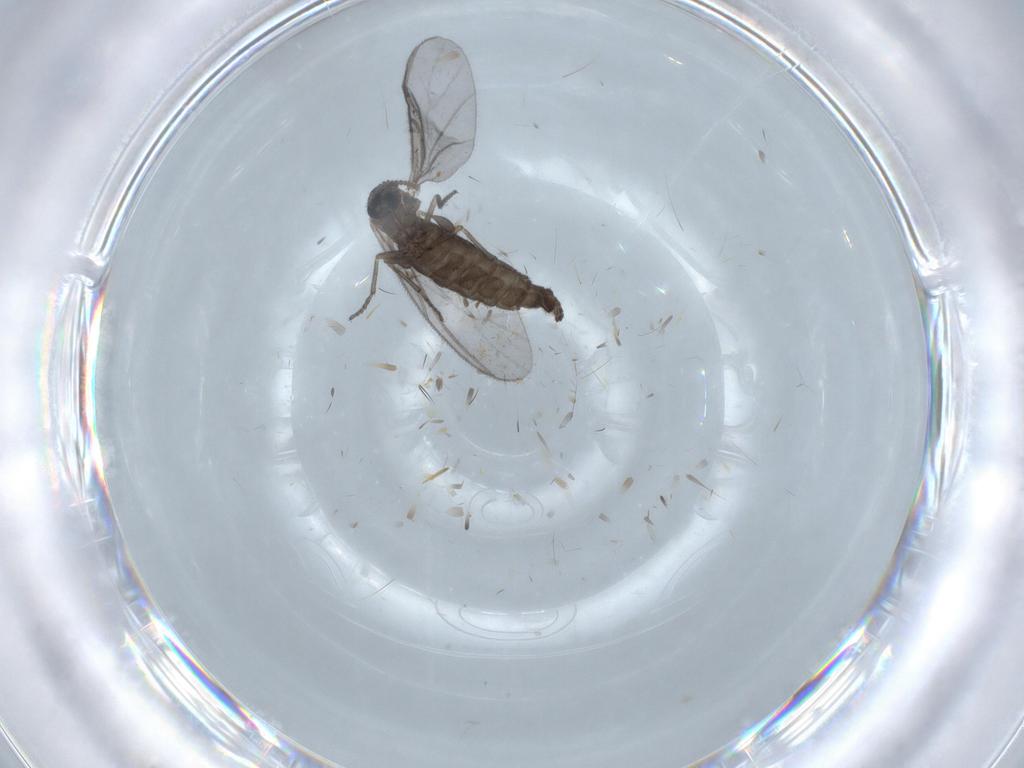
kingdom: Animalia
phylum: Arthropoda
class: Insecta
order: Diptera
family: Sciaridae
